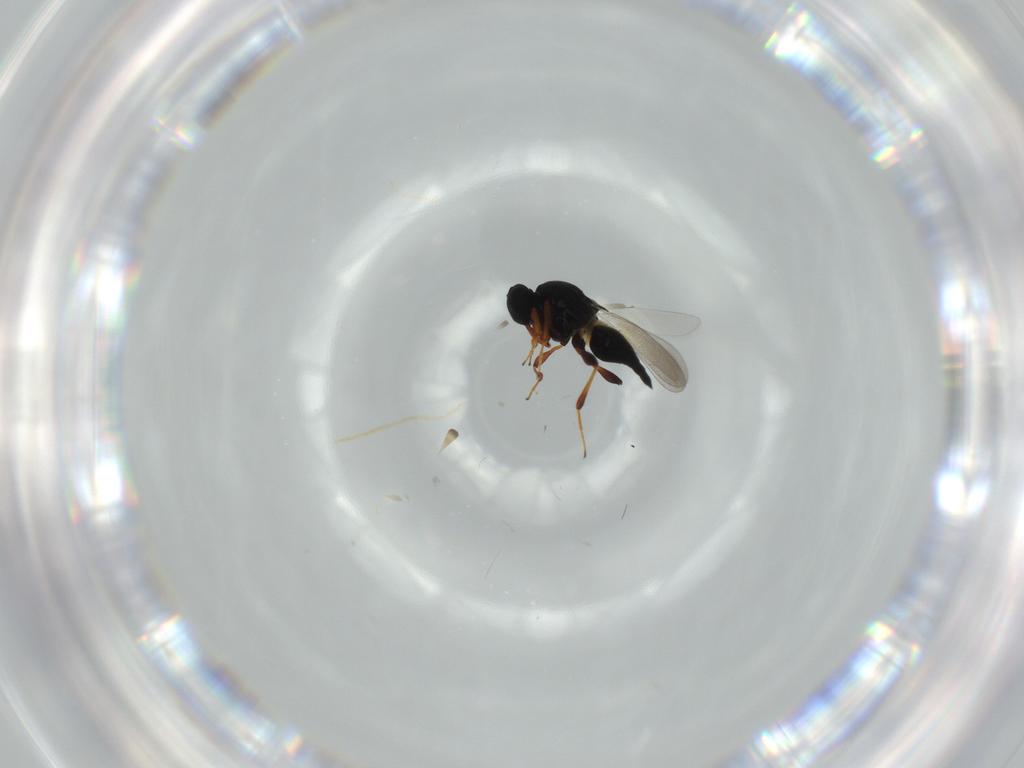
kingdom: Animalia
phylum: Arthropoda
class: Insecta
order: Hymenoptera
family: Platygastridae
